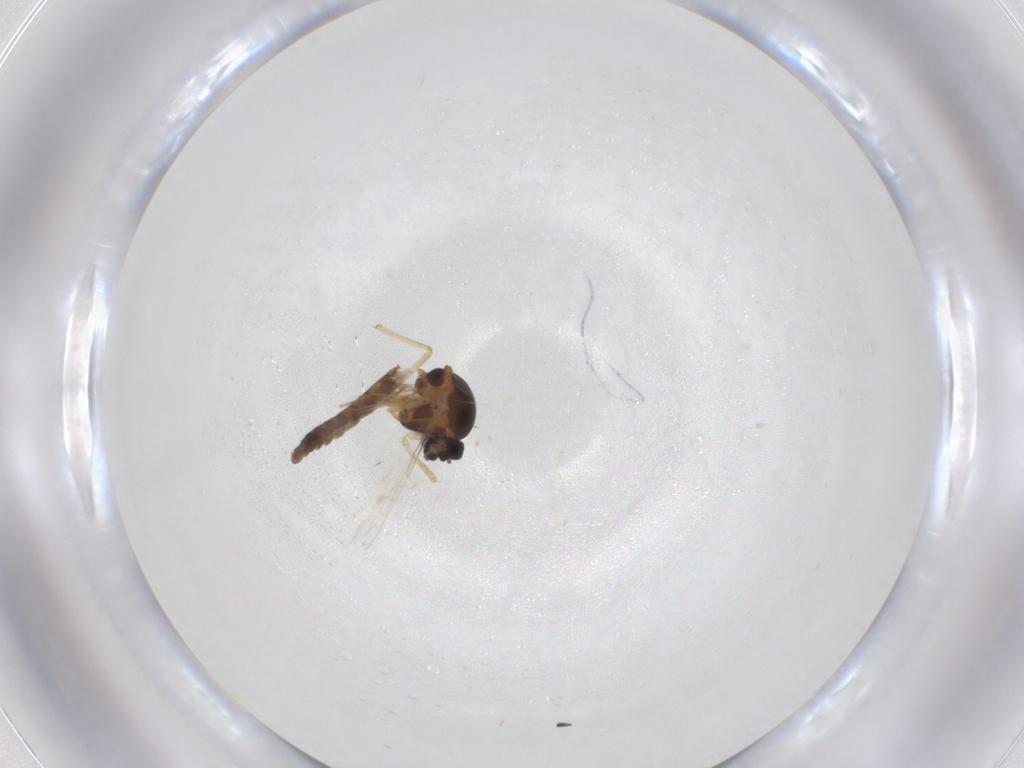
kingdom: Animalia
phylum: Arthropoda
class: Insecta
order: Diptera
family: Ceratopogonidae
